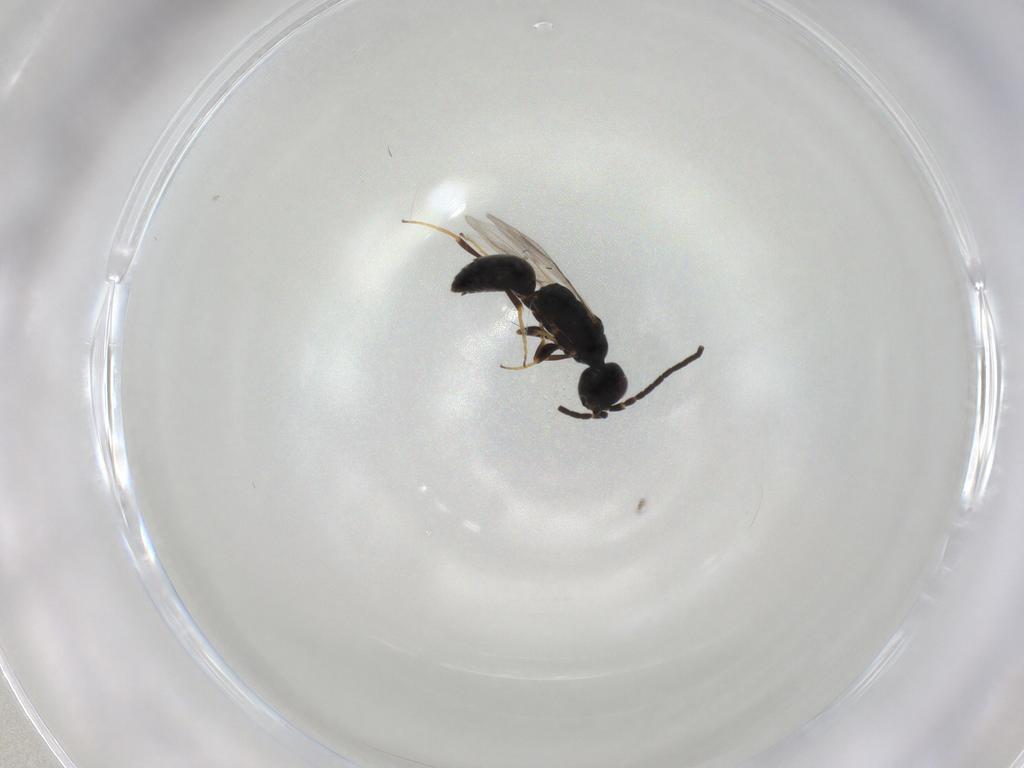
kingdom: Animalia
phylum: Arthropoda
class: Insecta
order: Hymenoptera
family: Bethylidae
